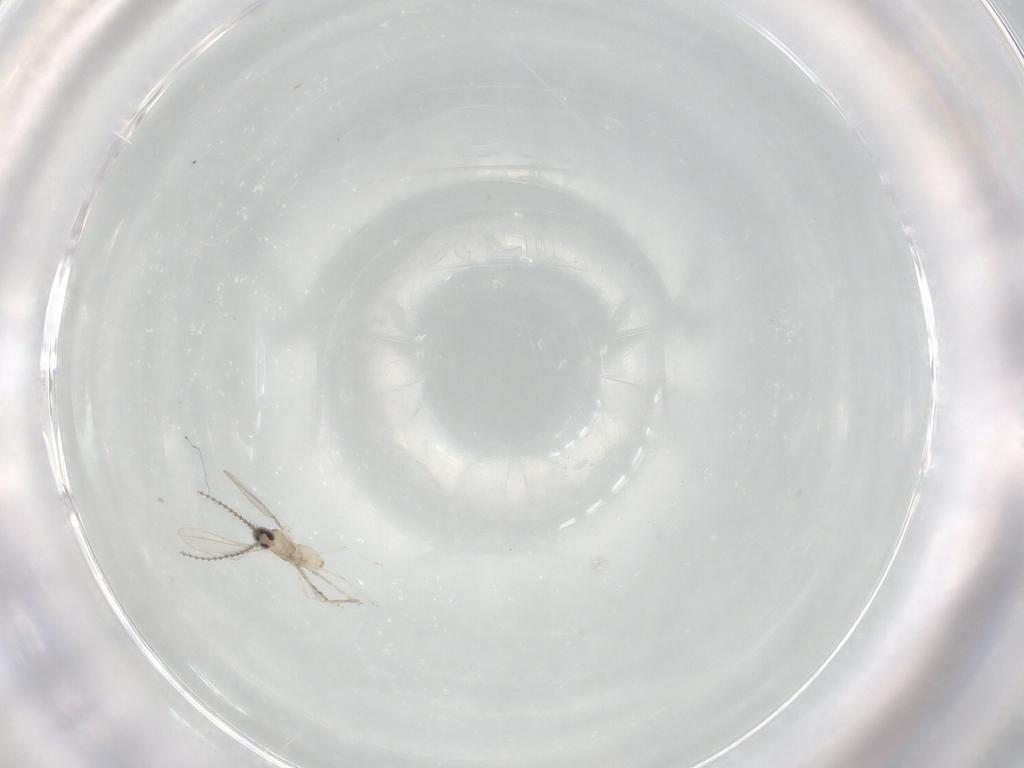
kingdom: Animalia
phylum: Arthropoda
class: Insecta
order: Diptera
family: Cecidomyiidae
